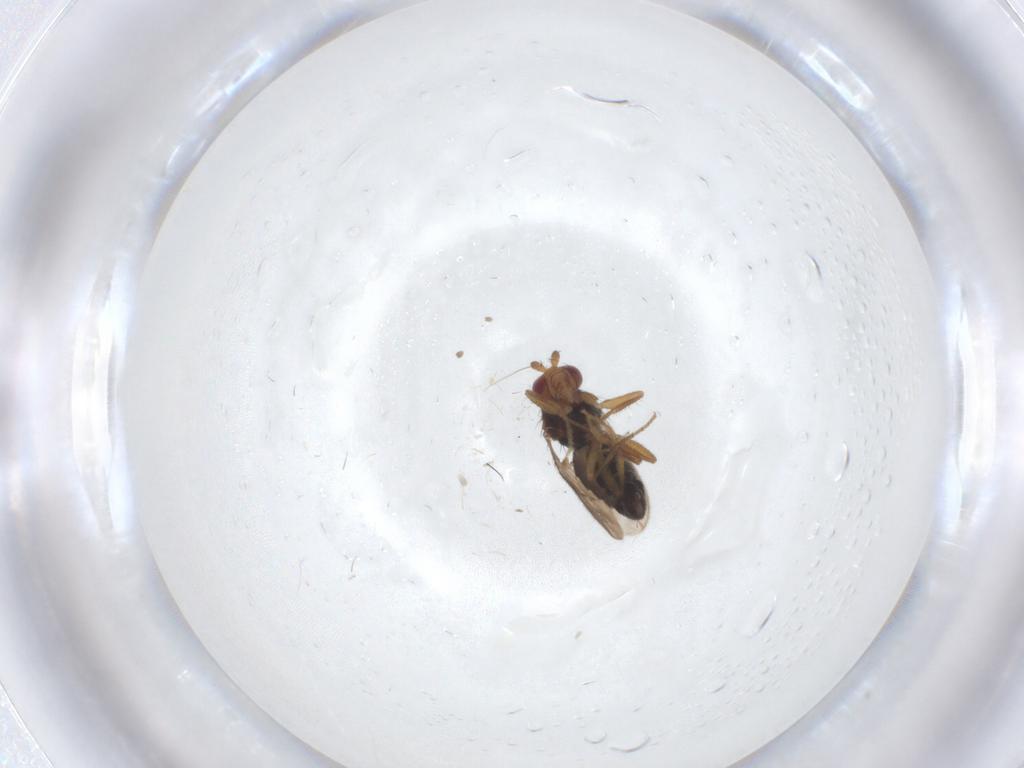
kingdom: Animalia
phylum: Arthropoda
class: Insecta
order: Diptera
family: Sphaeroceridae
